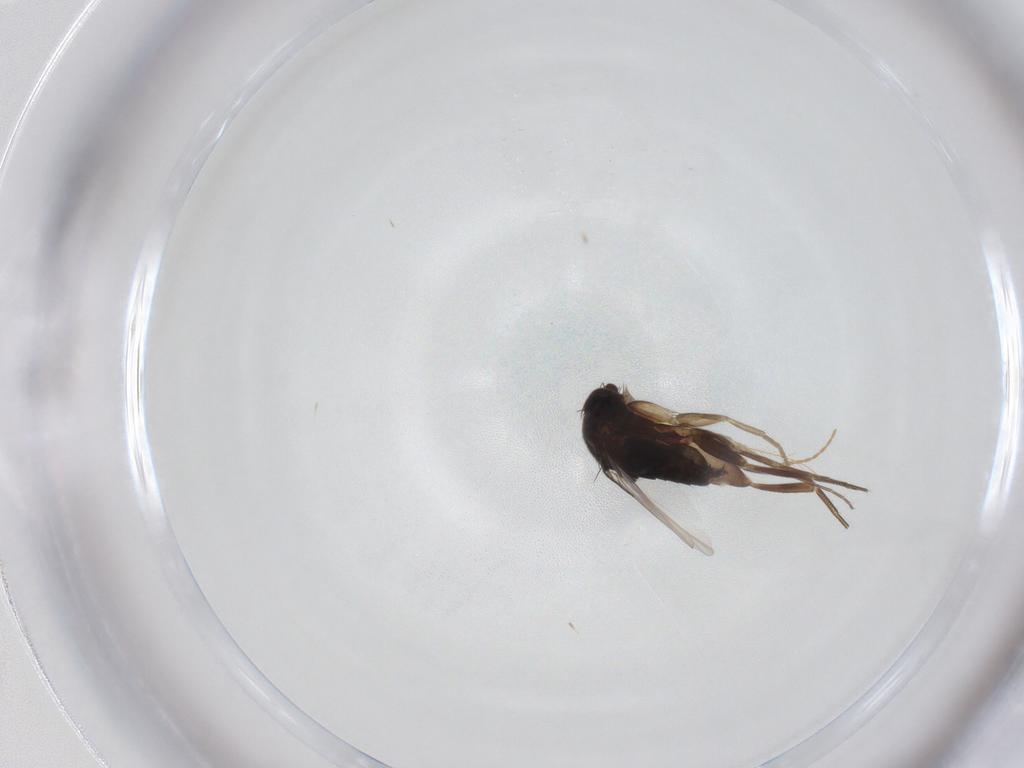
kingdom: Animalia
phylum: Arthropoda
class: Insecta
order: Diptera
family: Phoridae
